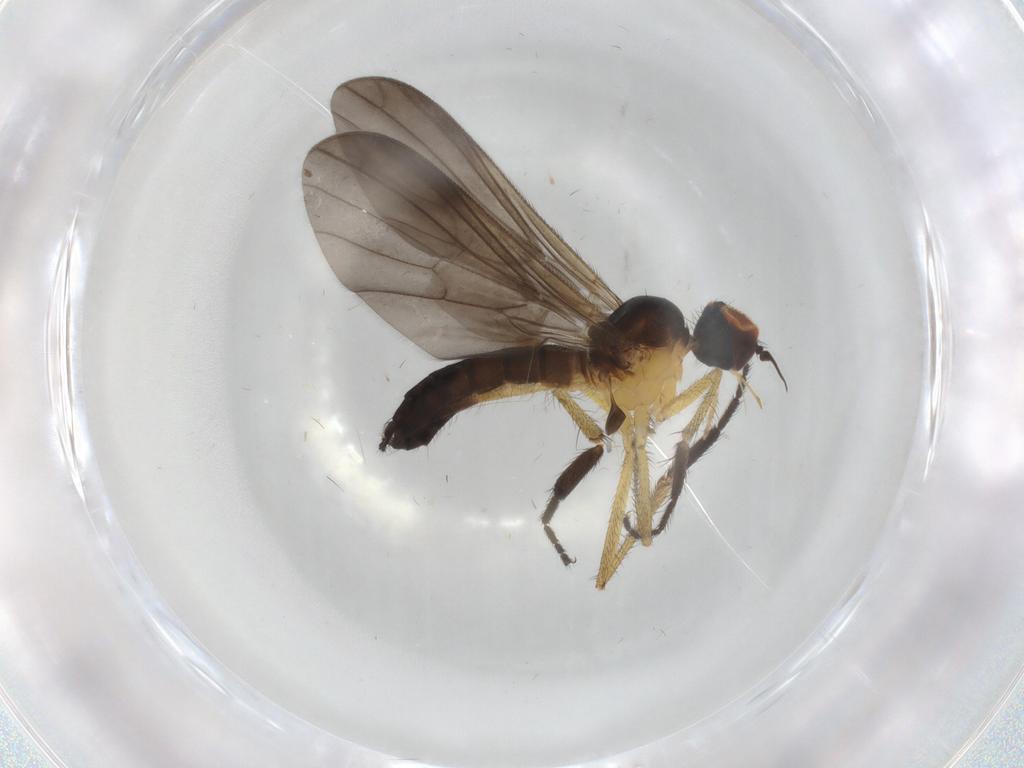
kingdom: Animalia
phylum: Arthropoda
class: Insecta
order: Diptera
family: Empididae
